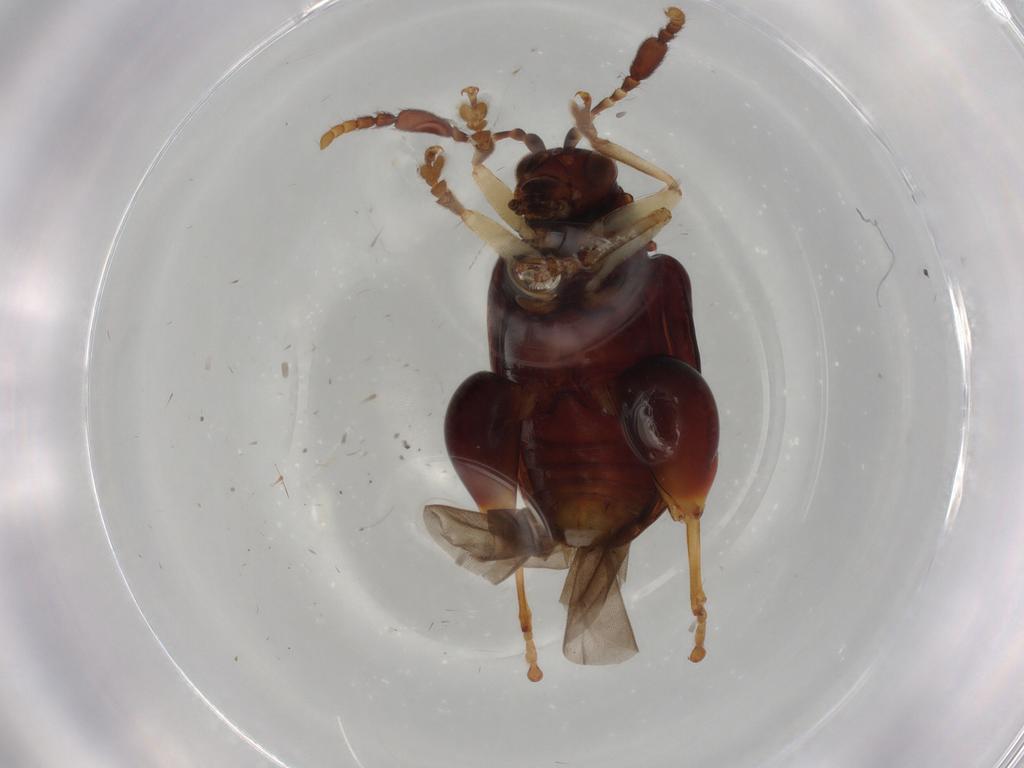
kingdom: Animalia
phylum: Arthropoda
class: Insecta
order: Coleoptera
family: Chrysomelidae
